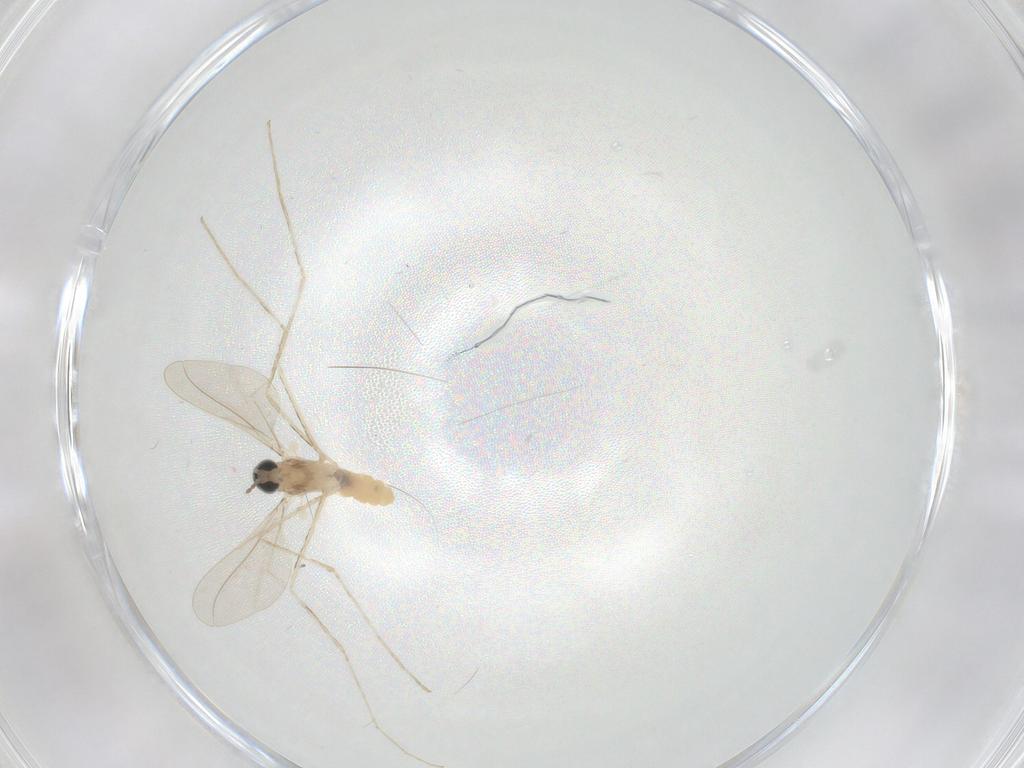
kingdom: Animalia
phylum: Arthropoda
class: Insecta
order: Diptera
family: Cecidomyiidae
